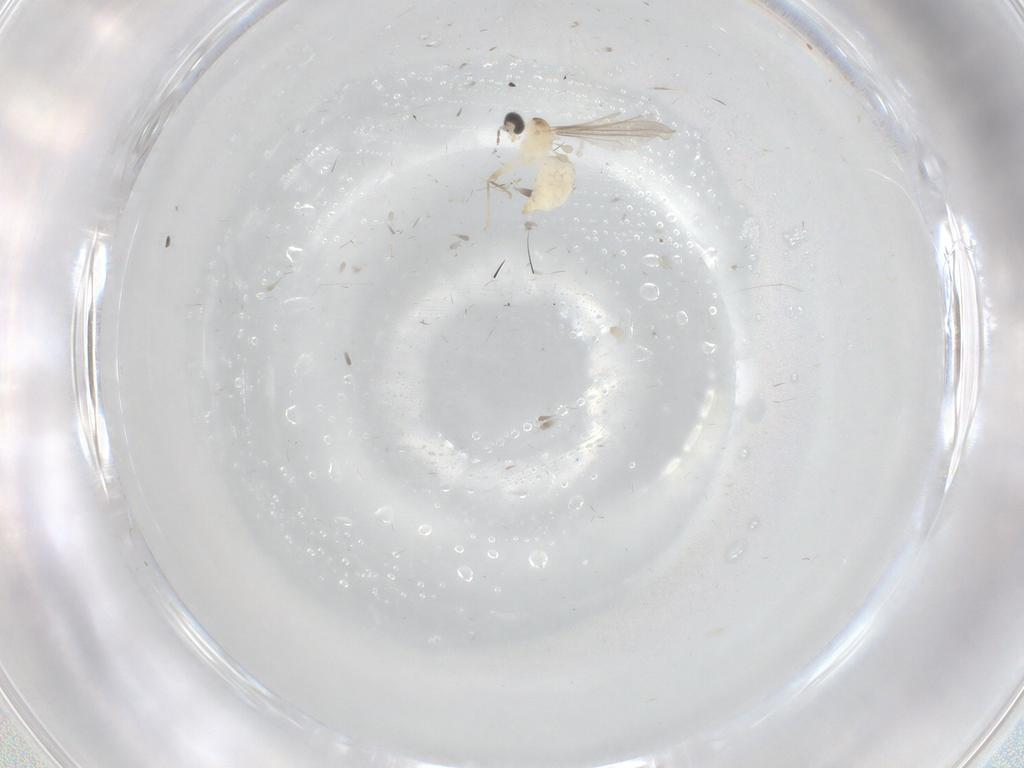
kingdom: Animalia
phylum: Arthropoda
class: Insecta
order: Diptera
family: Cecidomyiidae
